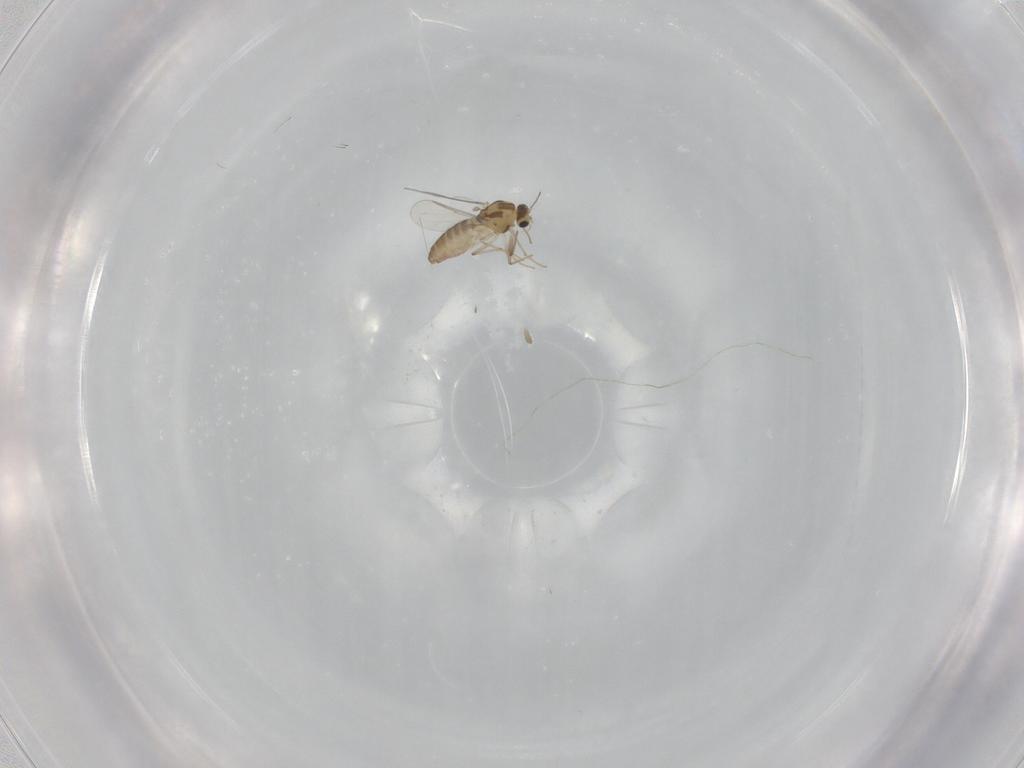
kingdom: Animalia
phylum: Arthropoda
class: Insecta
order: Diptera
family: Chironomidae
